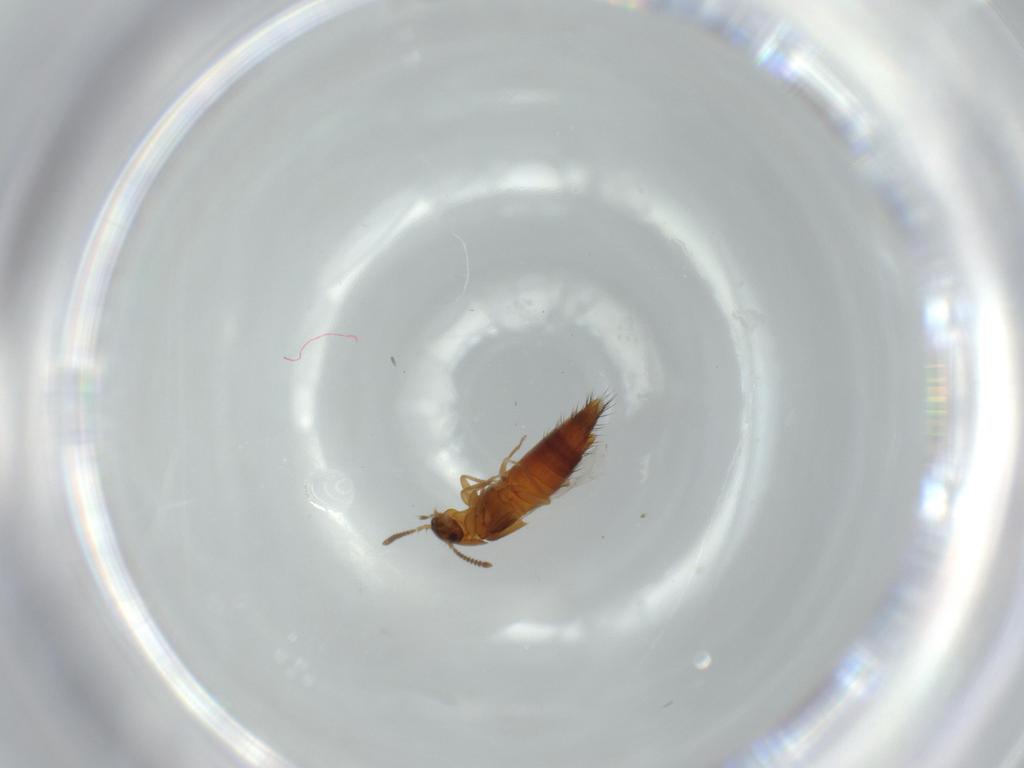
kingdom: Animalia
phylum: Arthropoda
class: Insecta
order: Coleoptera
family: Staphylinidae
